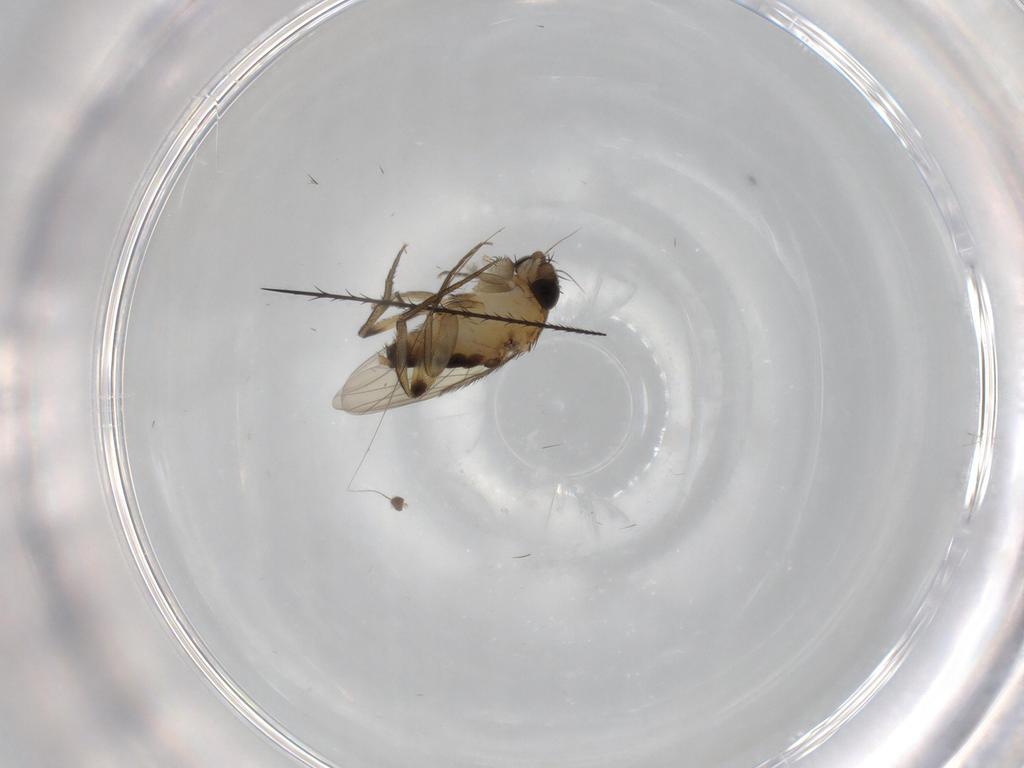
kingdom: Animalia
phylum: Arthropoda
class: Insecta
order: Diptera
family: Phoridae
